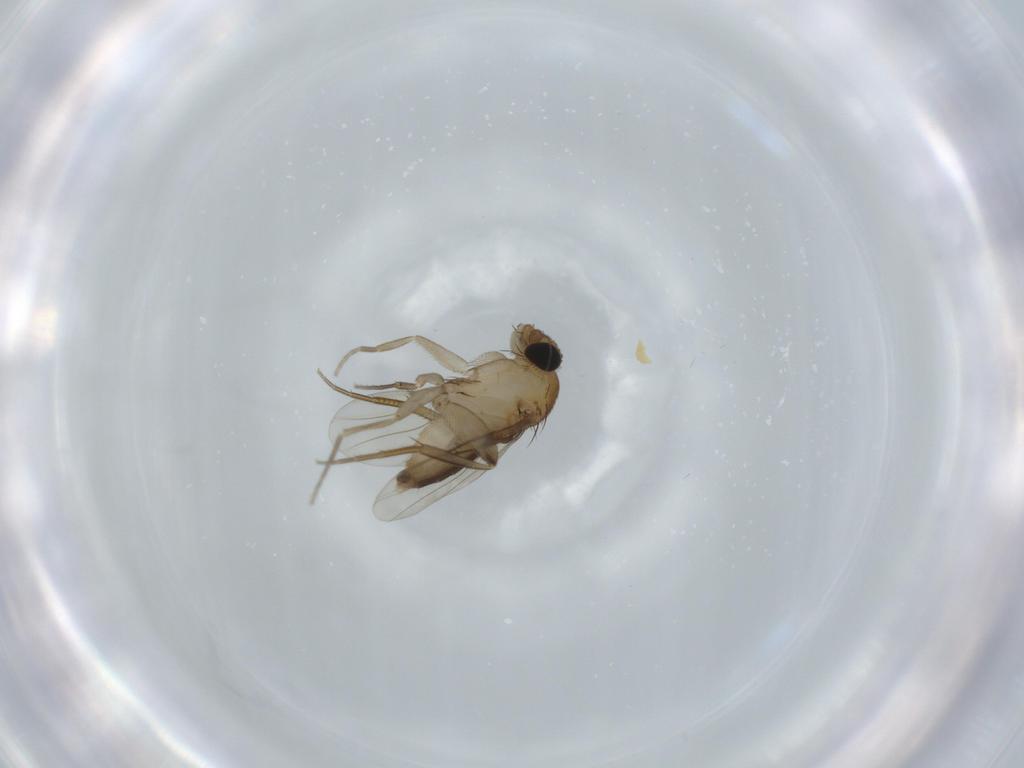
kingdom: Animalia
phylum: Arthropoda
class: Insecta
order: Diptera
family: Phoridae
